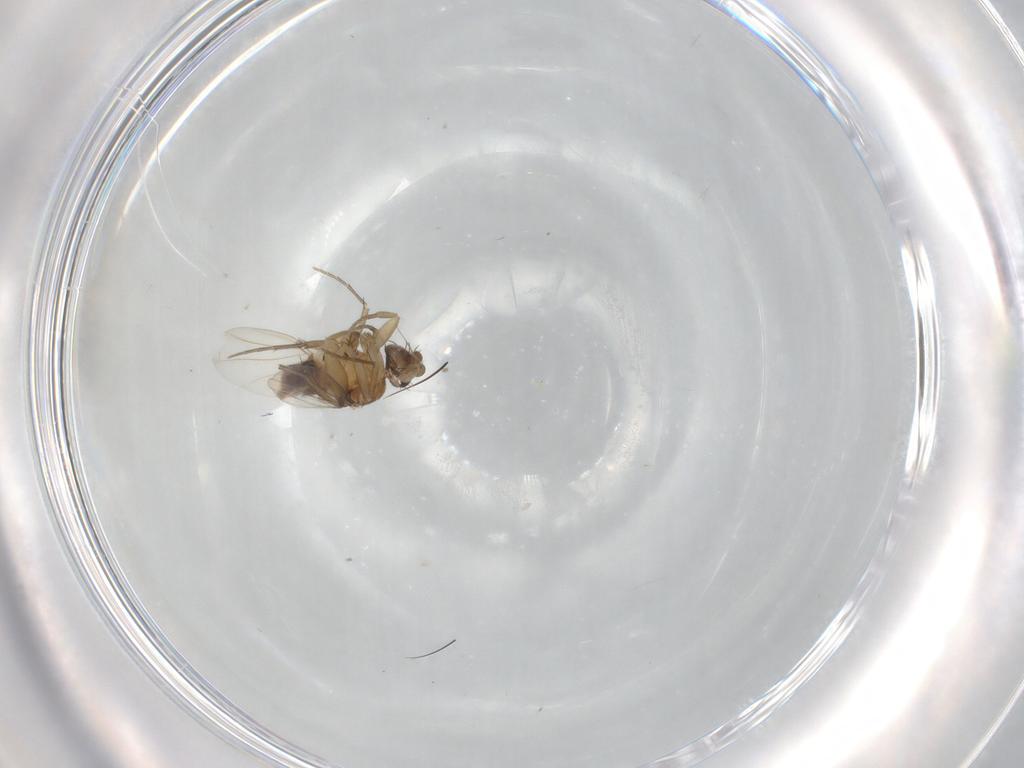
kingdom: Animalia
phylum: Arthropoda
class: Insecta
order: Diptera
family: Phoridae
